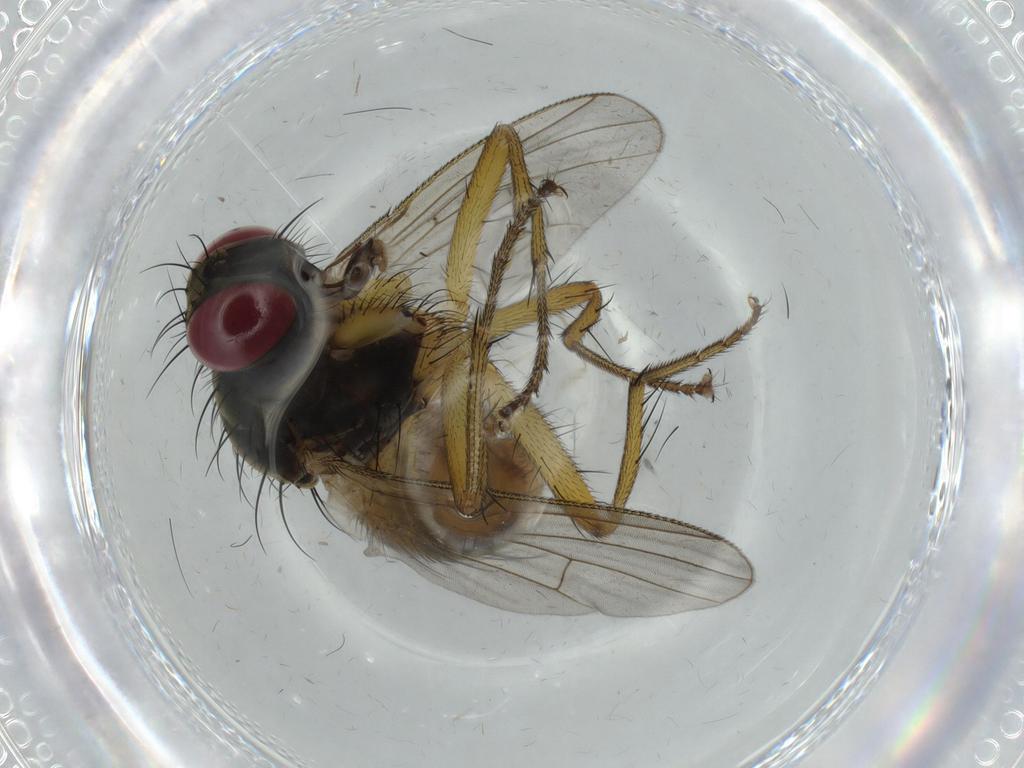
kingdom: Animalia
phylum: Arthropoda
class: Insecta
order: Diptera
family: Muscidae
